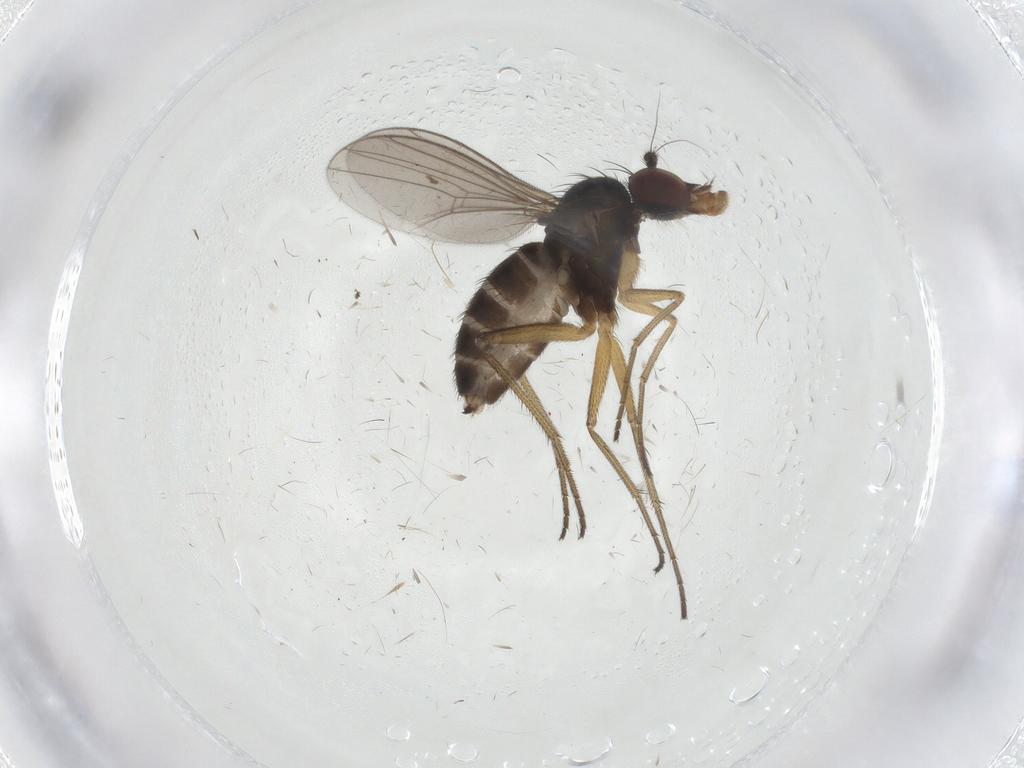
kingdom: Animalia
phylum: Arthropoda
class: Insecta
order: Diptera
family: Dolichopodidae
